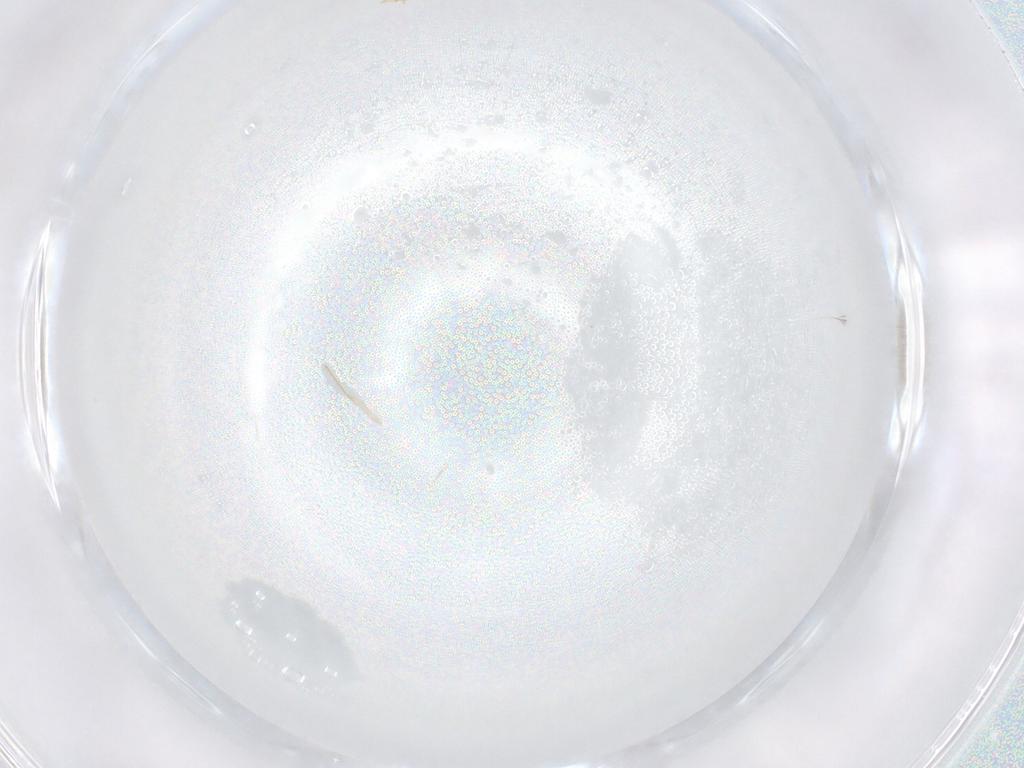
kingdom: Animalia
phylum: Arthropoda
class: Insecta
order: Hymenoptera
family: Mymaridae
